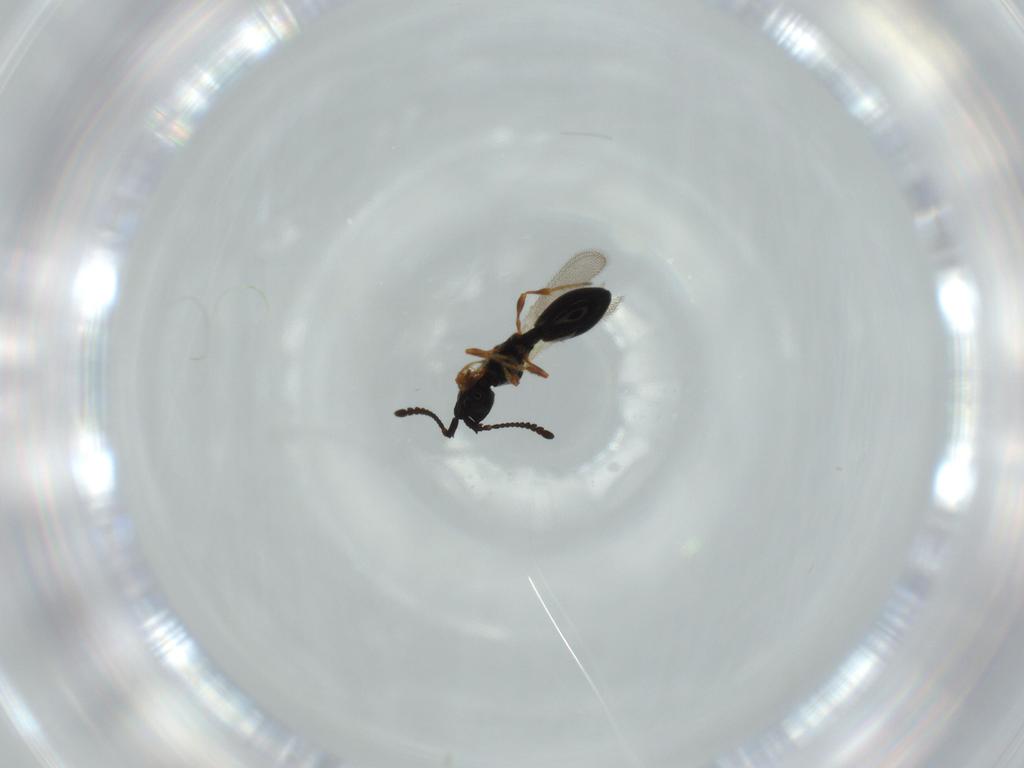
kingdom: Animalia
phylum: Arthropoda
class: Insecta
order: Hymenoptera
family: Diapriidae
